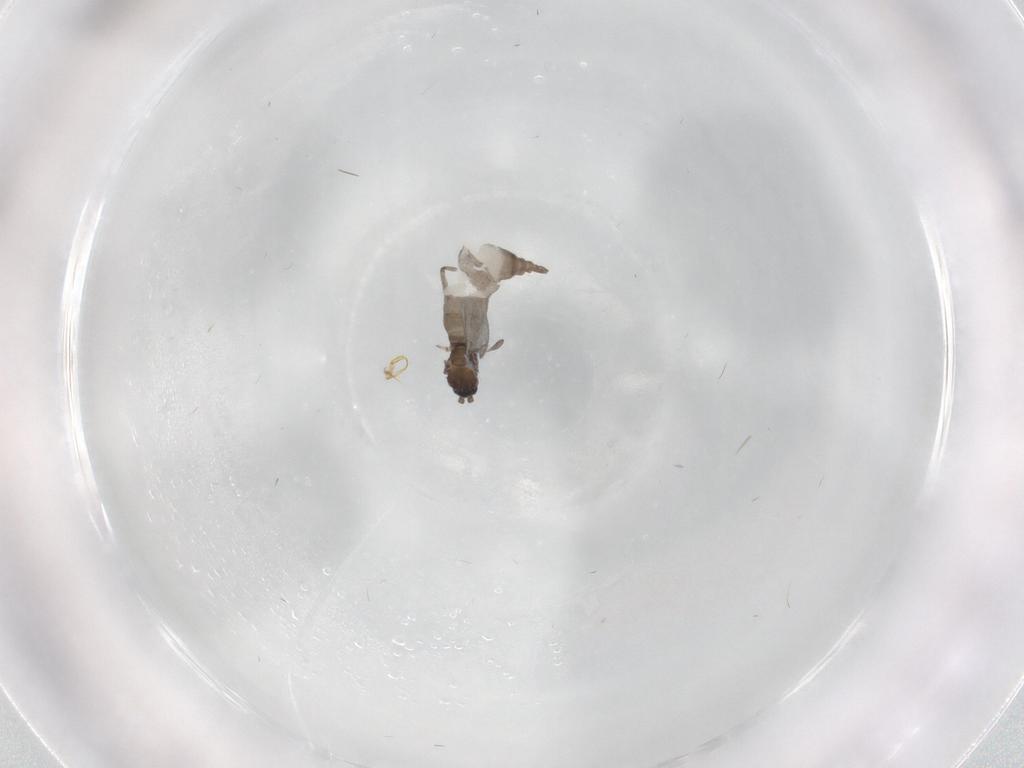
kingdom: Animalia
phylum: Arthropoda
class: Insecta
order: Diptera
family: Sciaridae
